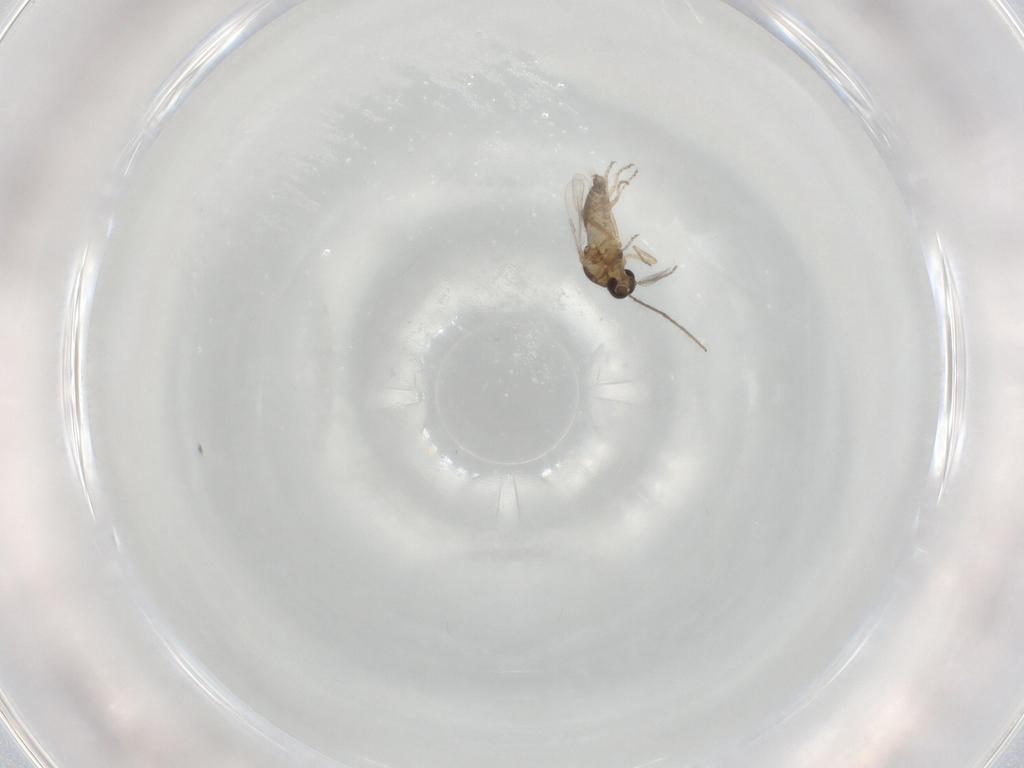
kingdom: Animalia
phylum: Arthropoda
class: Insecta
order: Diptera
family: Ceratopogonidae
